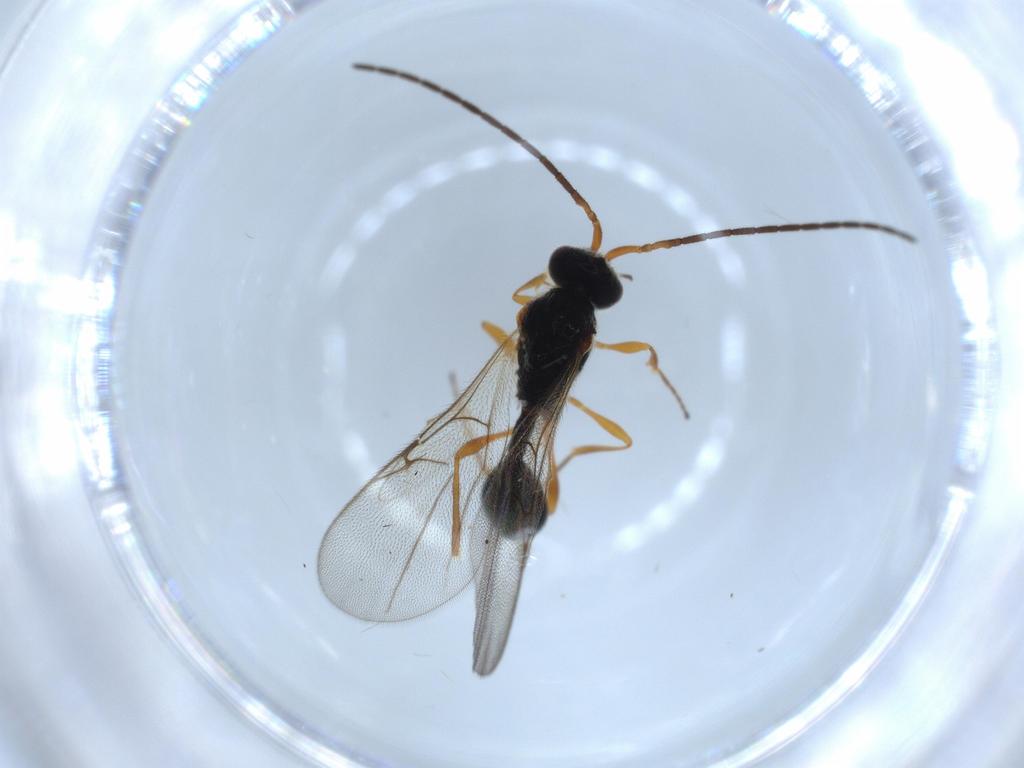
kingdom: Animalia
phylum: Arthropoda
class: Insecta
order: Hymenoptera
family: Diapriidae
